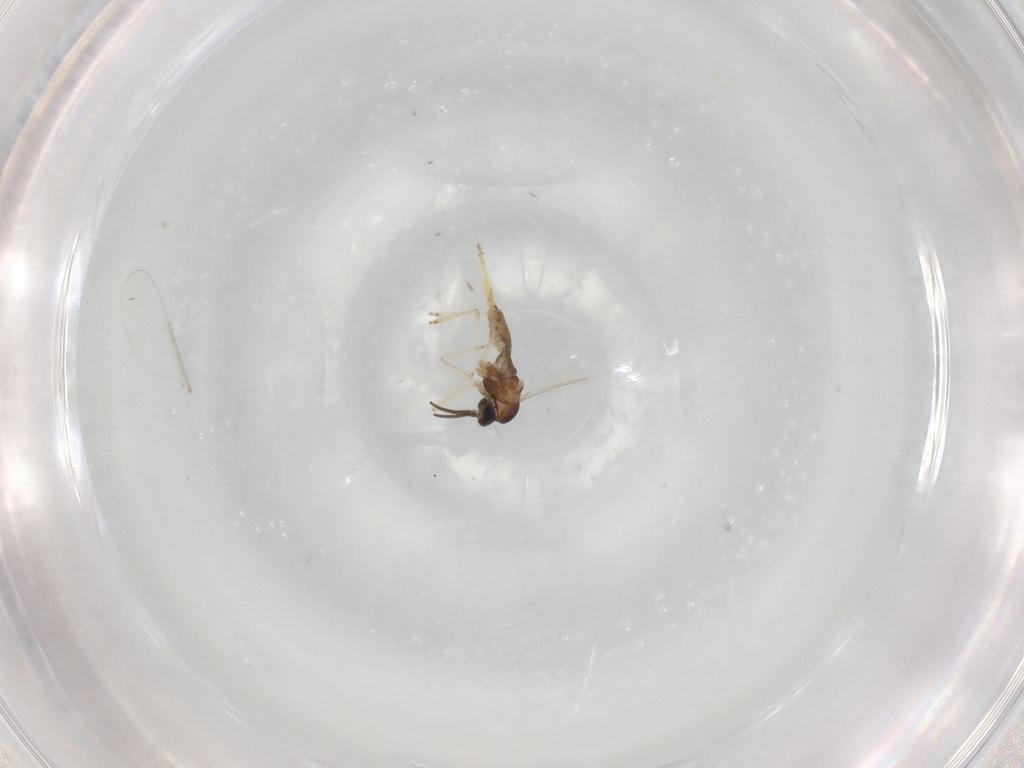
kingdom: Animalia
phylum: Arthropoda
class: Insecta
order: Diptera
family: Cecidomyiidae
